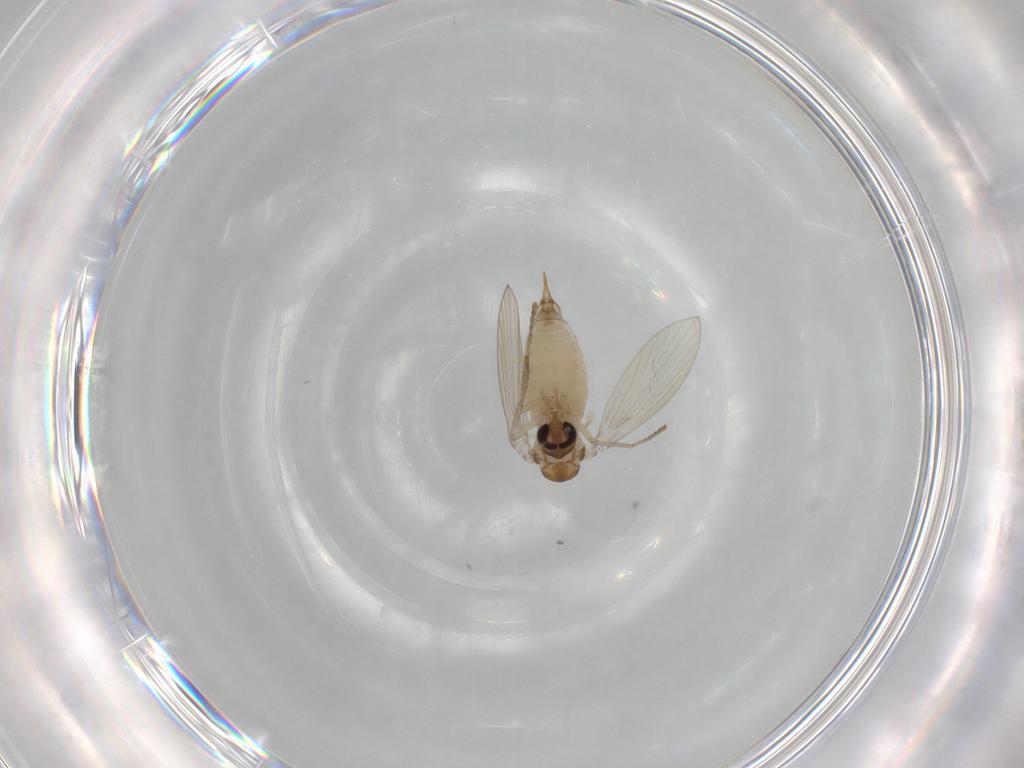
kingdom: Animalia
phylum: Arthropoda
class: Insecta
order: Diptera
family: Psychodidae
